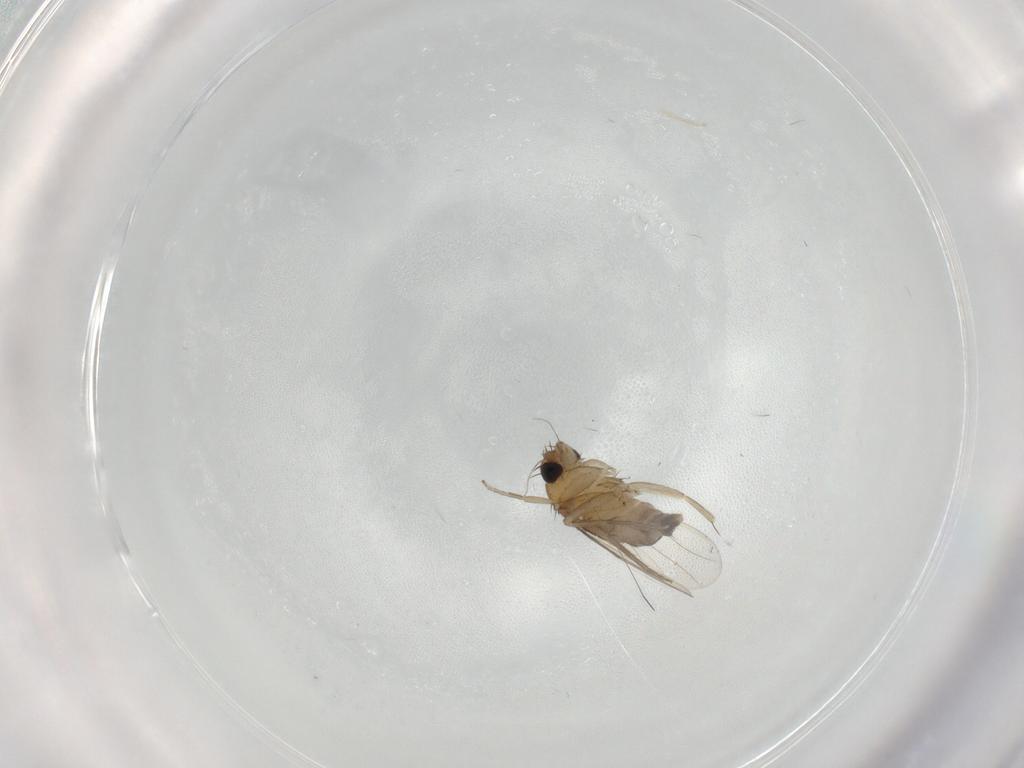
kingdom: Animalia
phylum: Arthropoda
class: Insecta
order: Diptera
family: Phoridae
